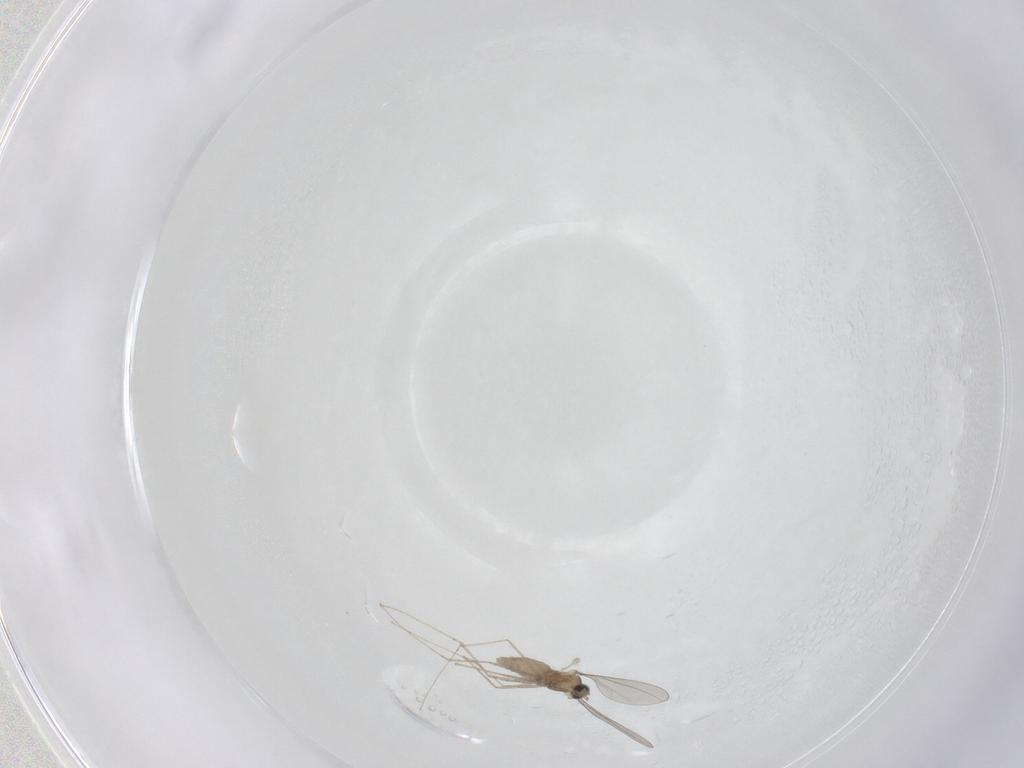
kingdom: Animalia
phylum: Arthropoda
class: Insecta
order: Diptera
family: Cecidomyiidae
